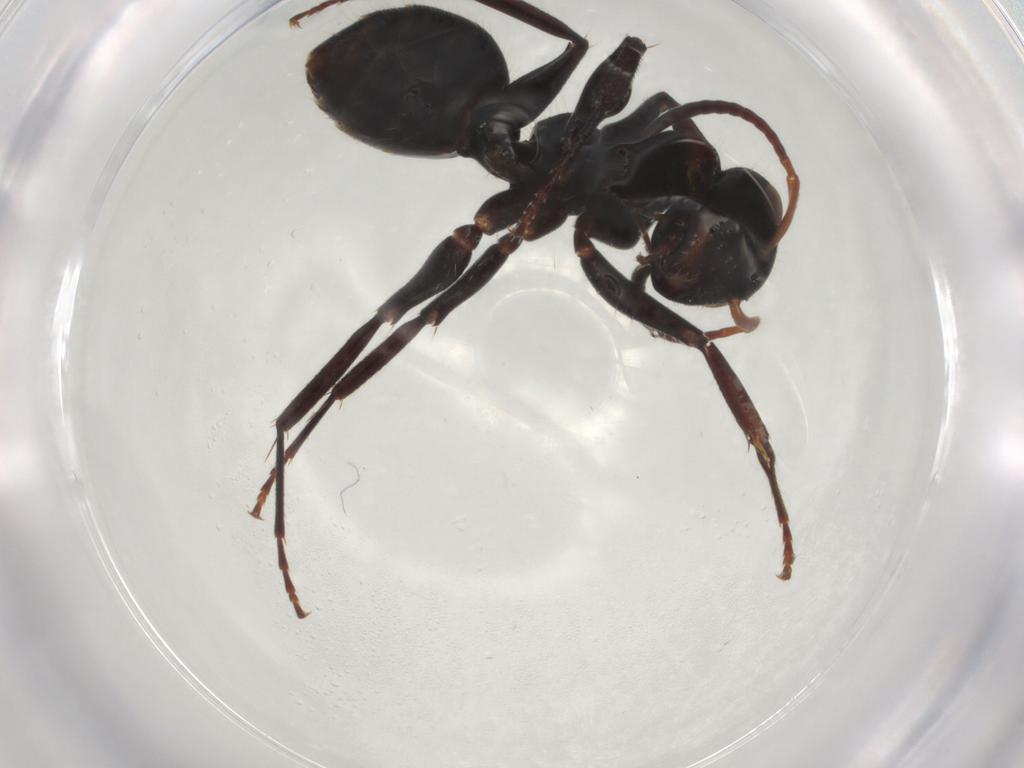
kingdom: Animalia
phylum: Arthropoda
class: Insecta
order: Hymenoptera
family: Formicidae
